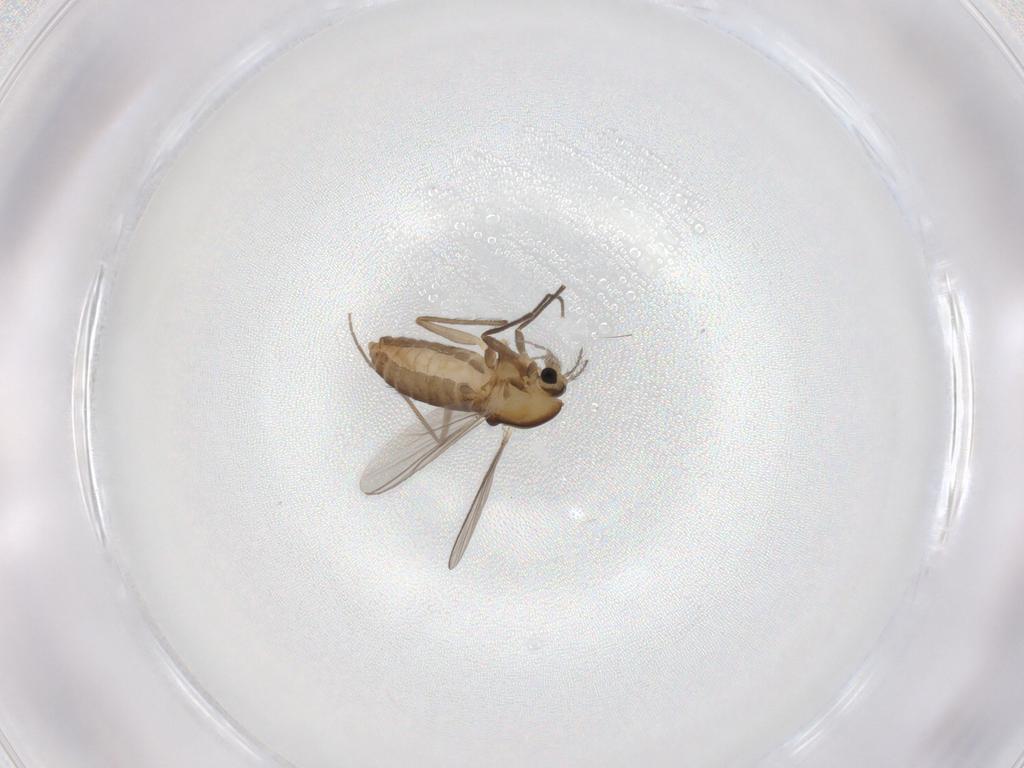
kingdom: Animalia
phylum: Arthropoda
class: Insecta
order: Diptera
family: Chironomidae
